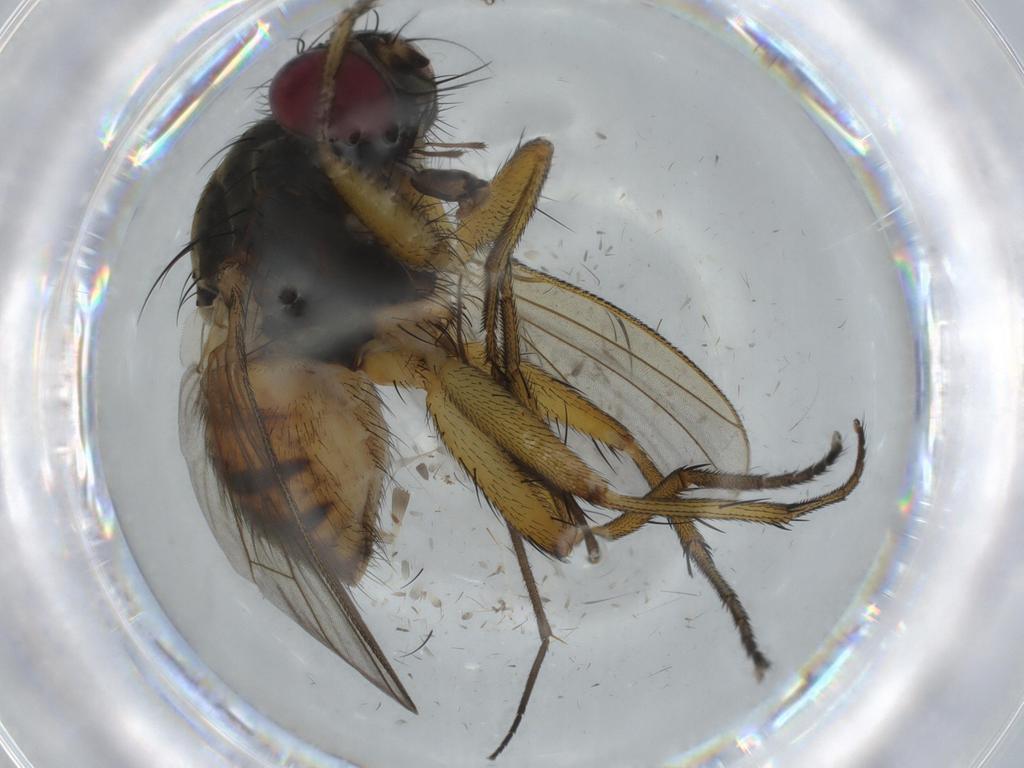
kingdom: Animalia
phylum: Arthropoda
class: Insecta
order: Diptera
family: Muscidae
